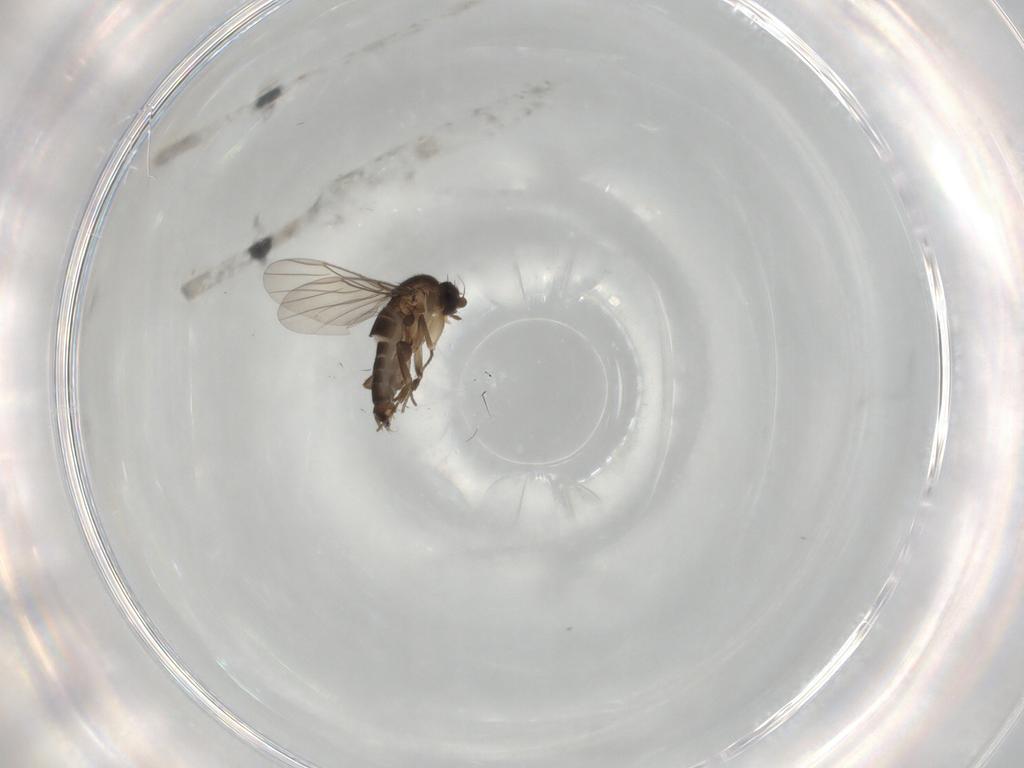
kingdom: Animalia
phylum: Arthropoda
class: Insecta
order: Diptera
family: Phoridae
